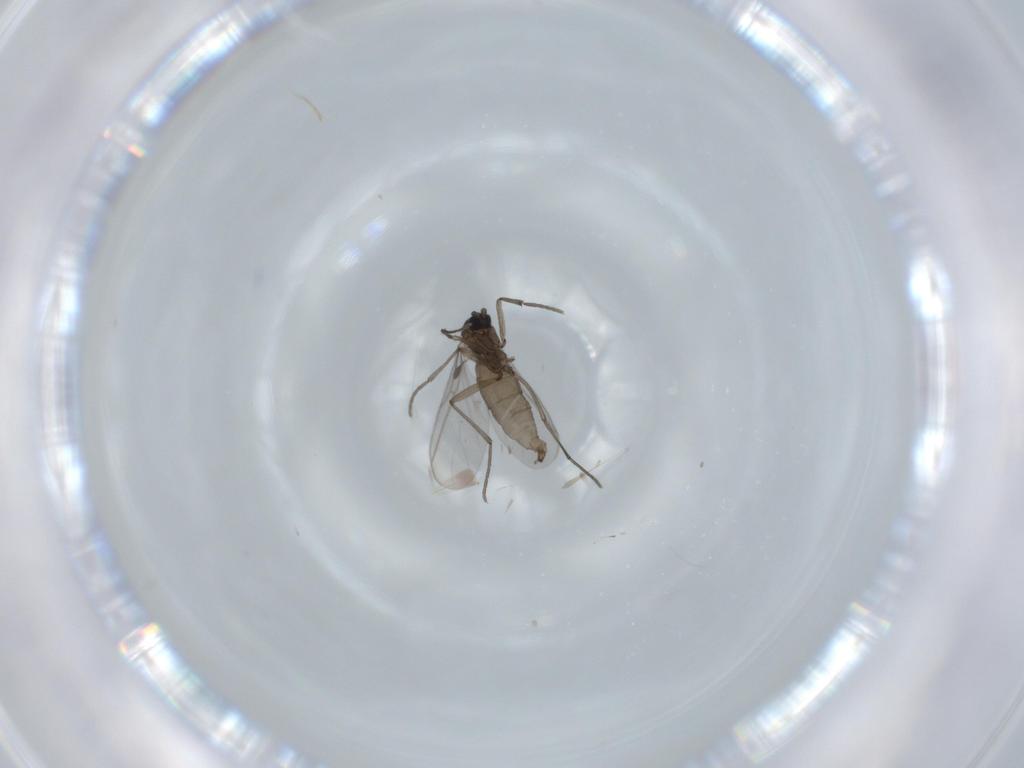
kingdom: Animalia
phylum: Arthropoda
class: Insecta
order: Diptera
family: Sciaridae
